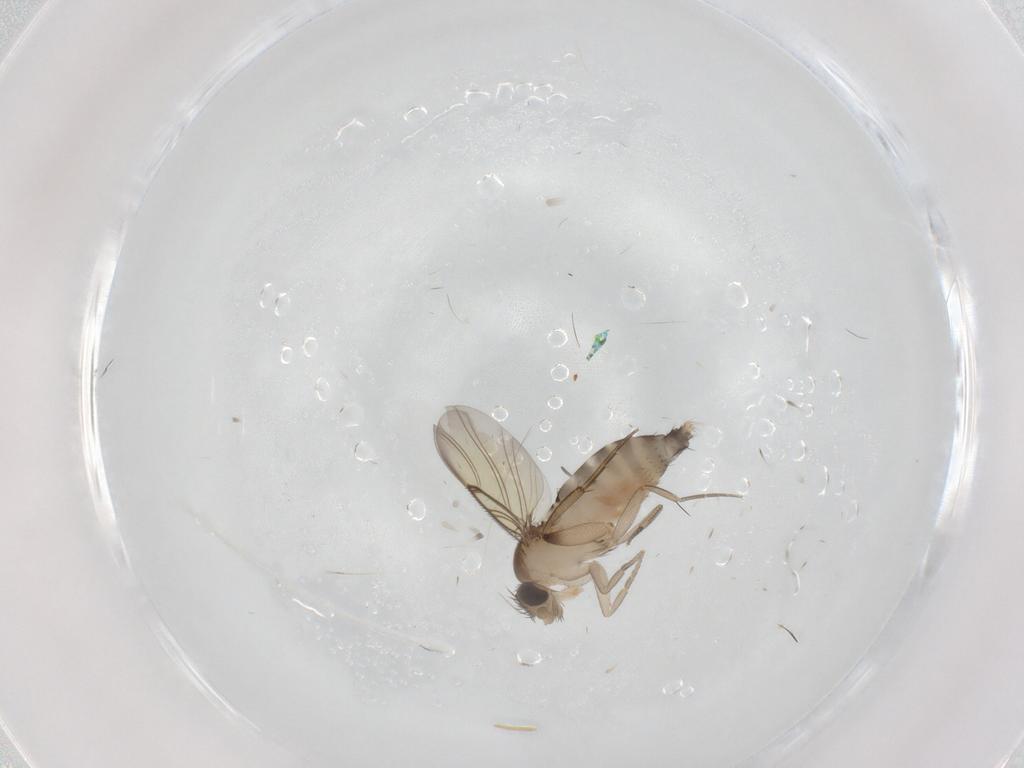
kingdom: Animalia
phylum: Arthropoda
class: Insecta
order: Diptera
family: Phoridae
